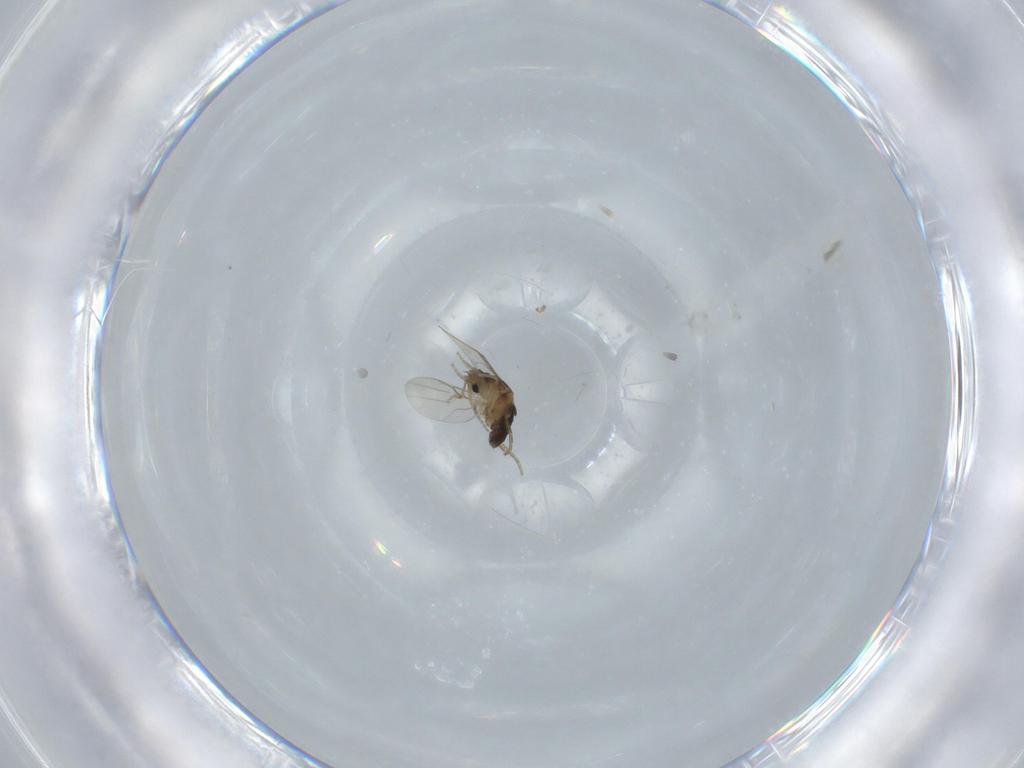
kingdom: Animalia
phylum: Arthropoda
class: Insecta
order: Diptera
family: Phoridae
